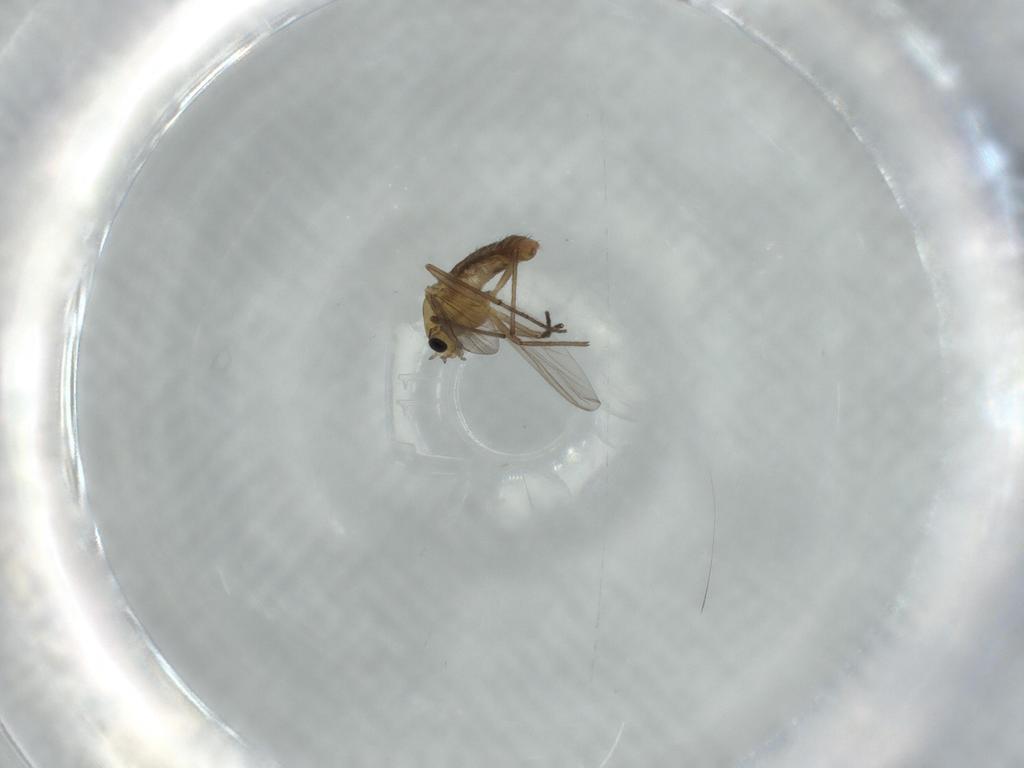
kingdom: Animalia
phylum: Arthropoda
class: Insecta
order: Diptera
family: Chironomidae
